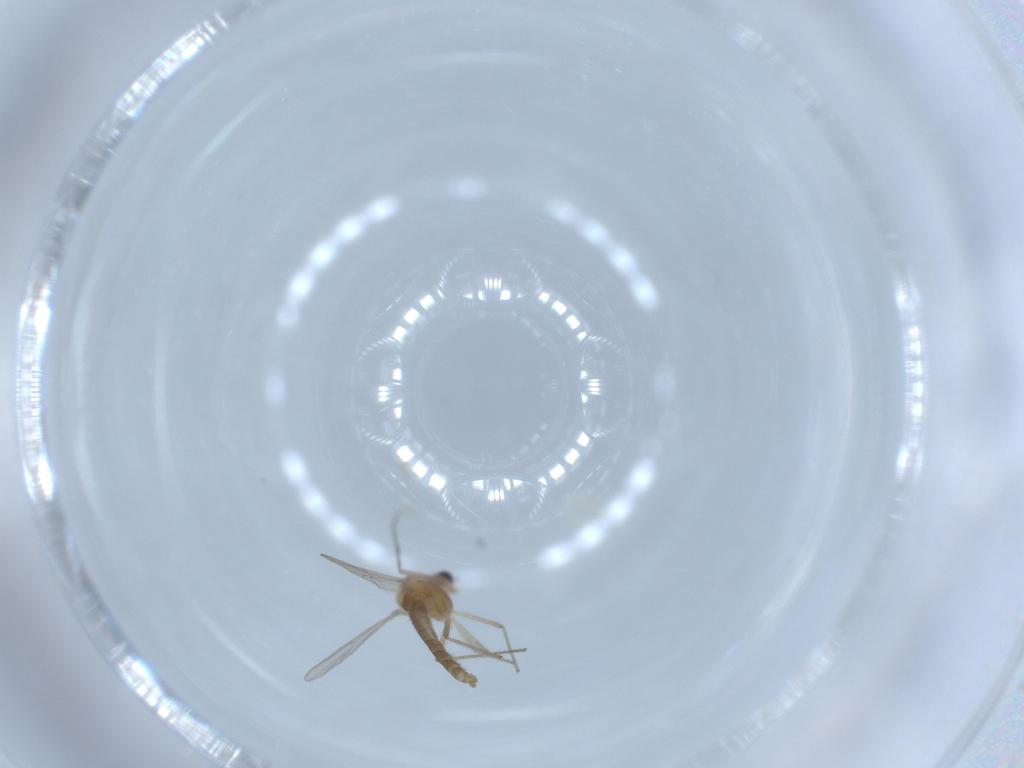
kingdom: Animalia
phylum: Arthropoda
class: Insecta
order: Diptera
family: Chironomidae
